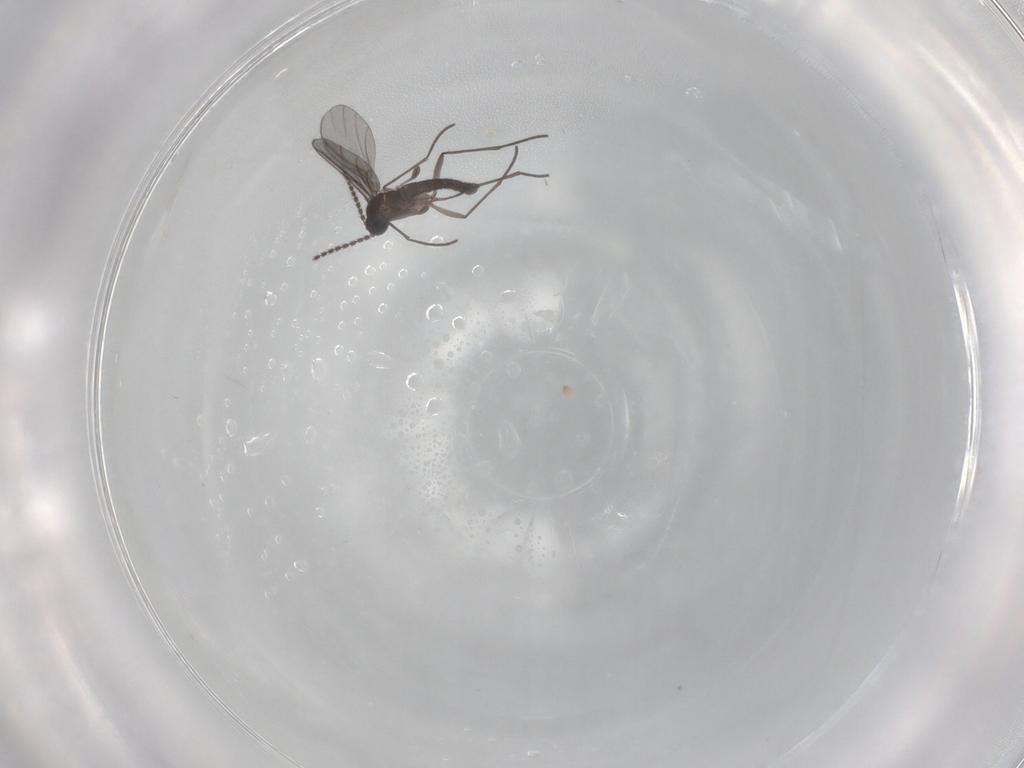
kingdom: Animalia
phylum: Arthropoda
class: Insecta
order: Diptera
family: Sciaridae
